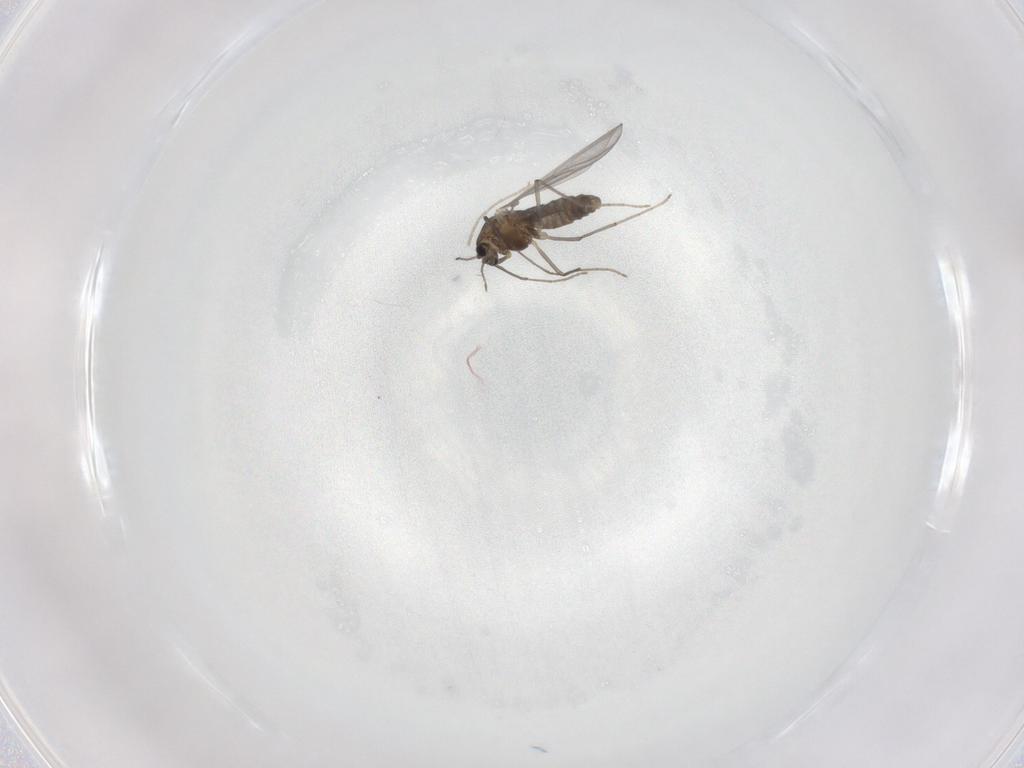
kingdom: Animalia
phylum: Arthropoda
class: Insecta
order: Diptera
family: Chironomidae
